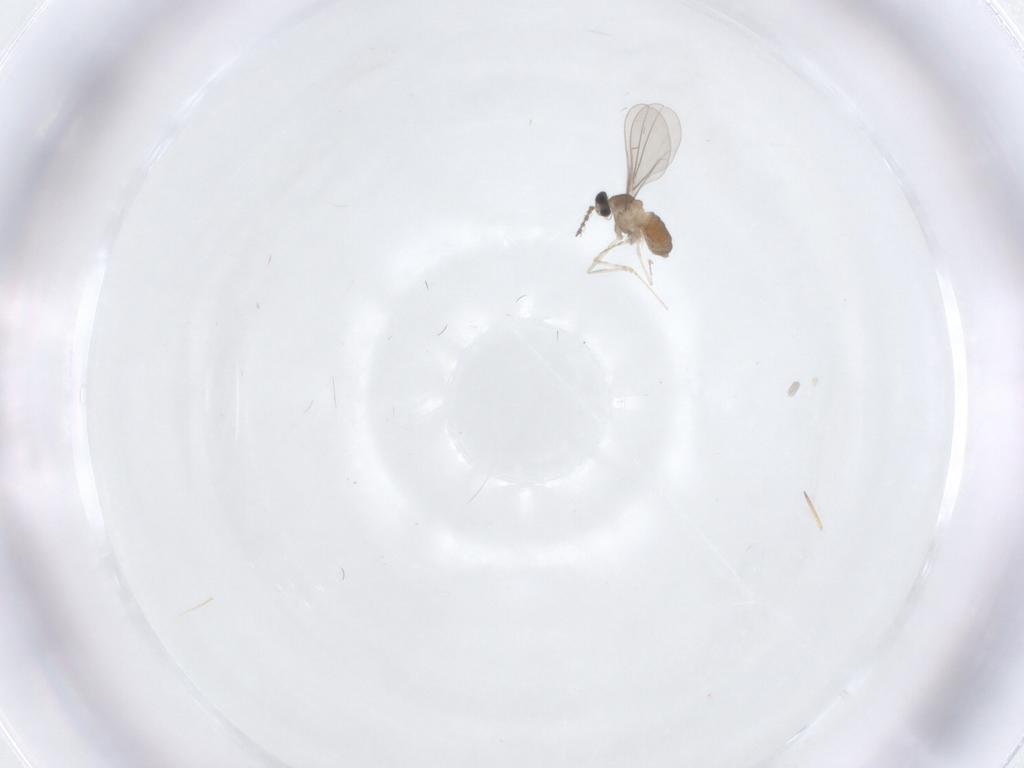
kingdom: Animalia
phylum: Arthropoda
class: Insecta
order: Diptera
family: Cecidomyiidae
